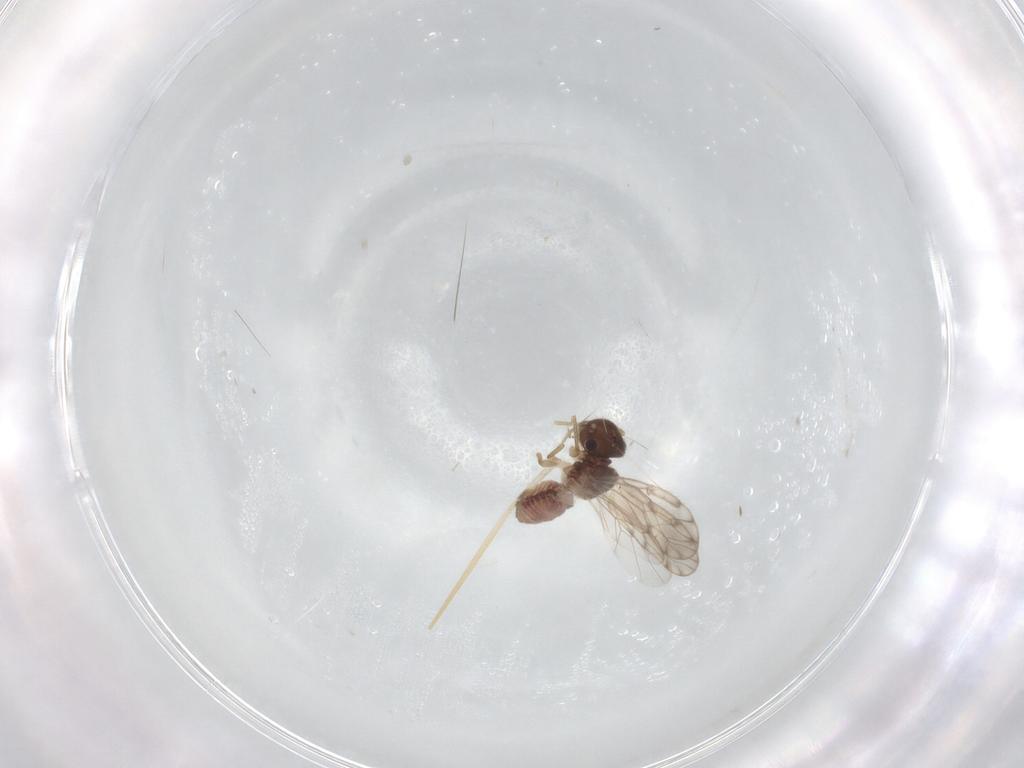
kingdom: Animalia
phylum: Arthropoda
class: Insecta
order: Psocodea
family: Peripsocidae
